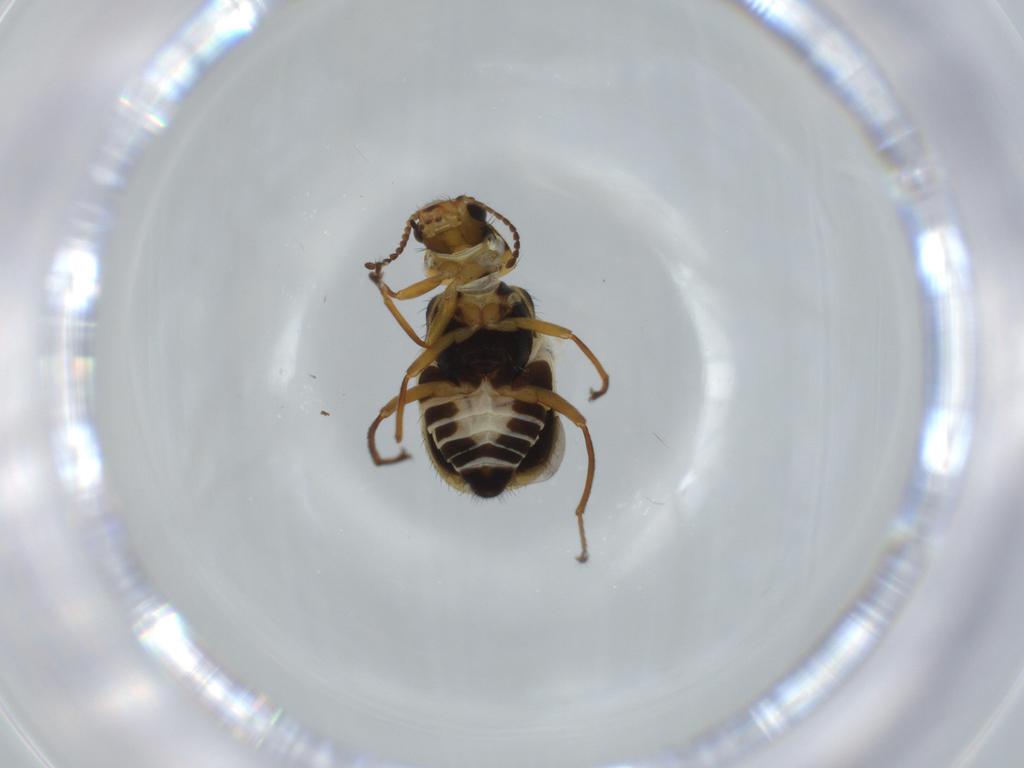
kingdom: Animalia
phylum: Arthropoda
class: Insecta
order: Coleoptera
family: Melyridae
